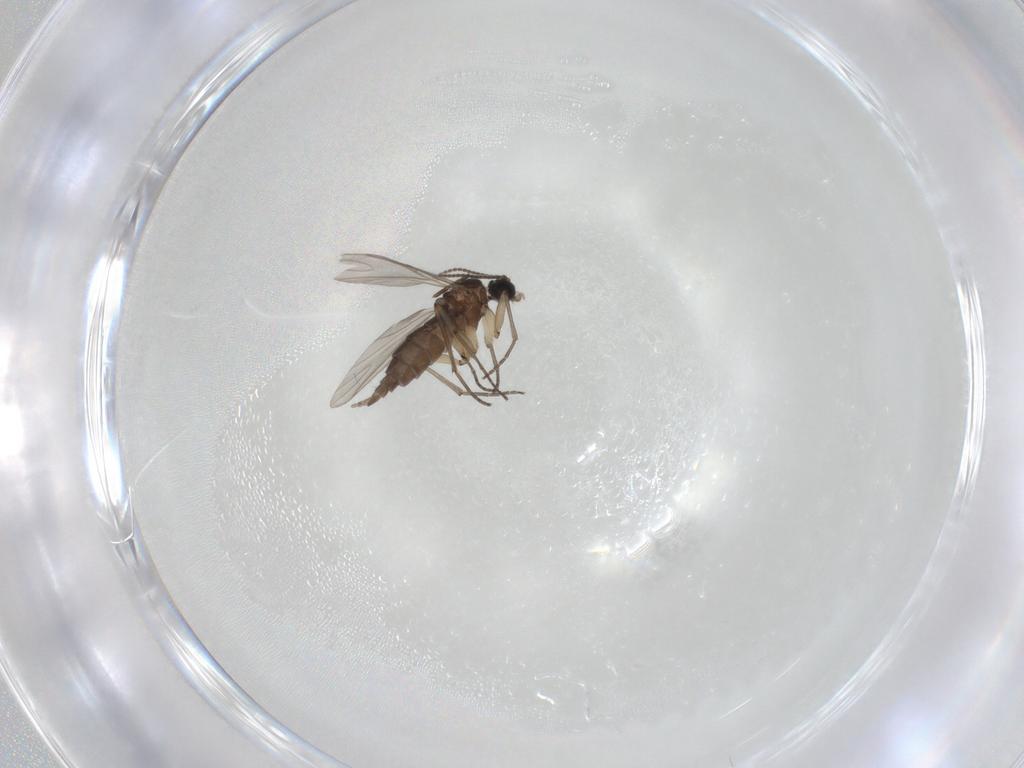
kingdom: Animalia
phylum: Arthropoda
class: Insecta
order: Diptera
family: Sciaridae
